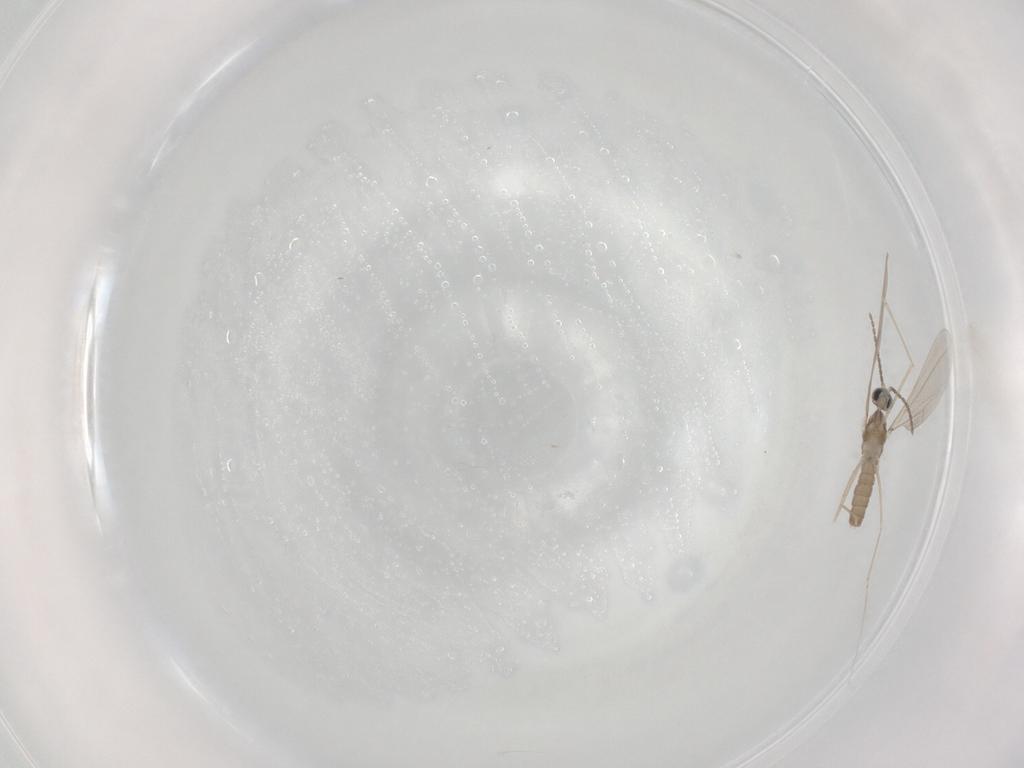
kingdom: Animalia
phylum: Arthropoda
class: Insecta
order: Diptera
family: Cecidomyiidae
